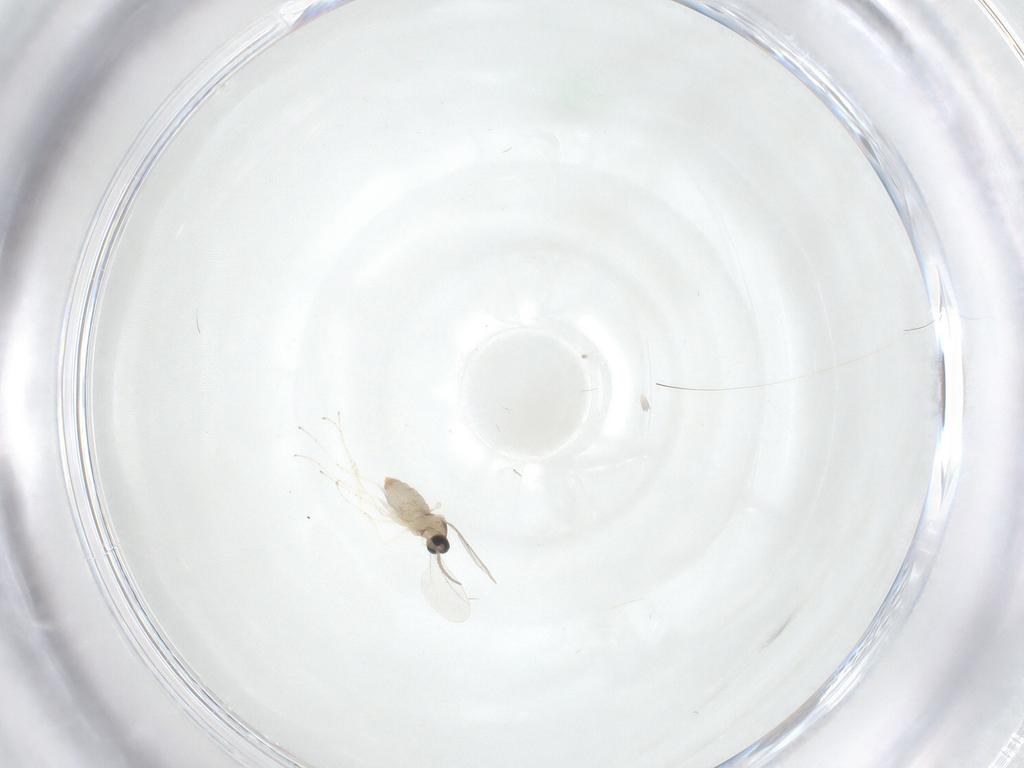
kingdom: Animalia
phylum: Arthropoda
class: Insecta
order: Diptera
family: Cecidomyiidae
